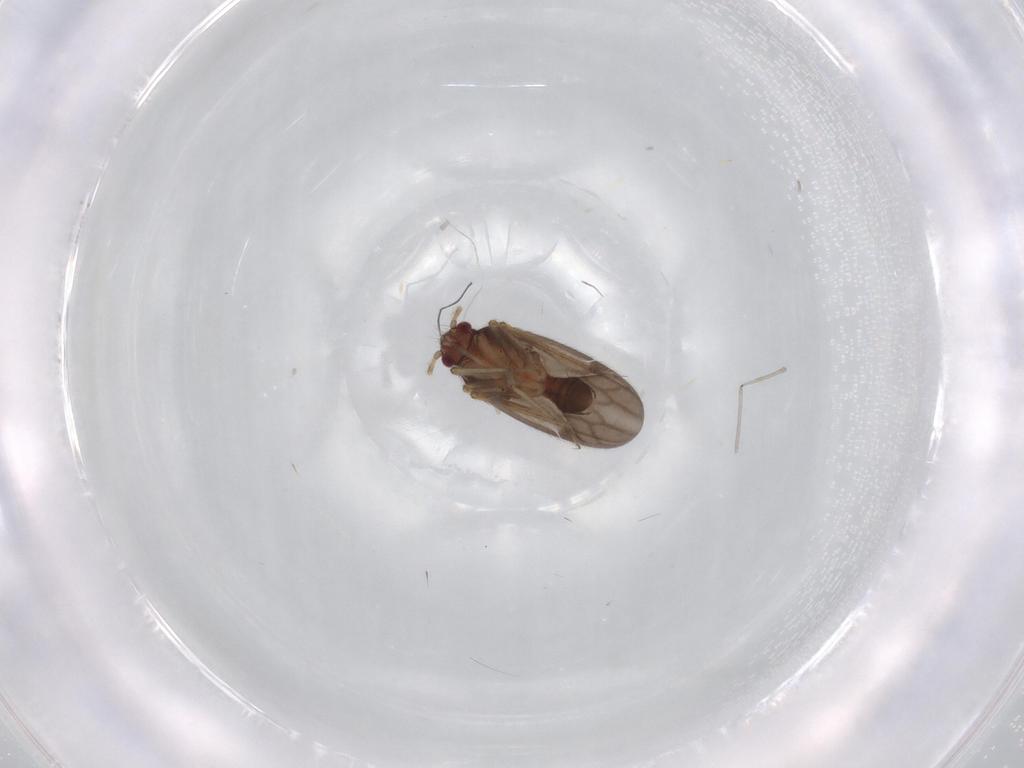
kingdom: Animalia
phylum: Arthropoda
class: Insecta
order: Hemiptera
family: Ceratocombidae
